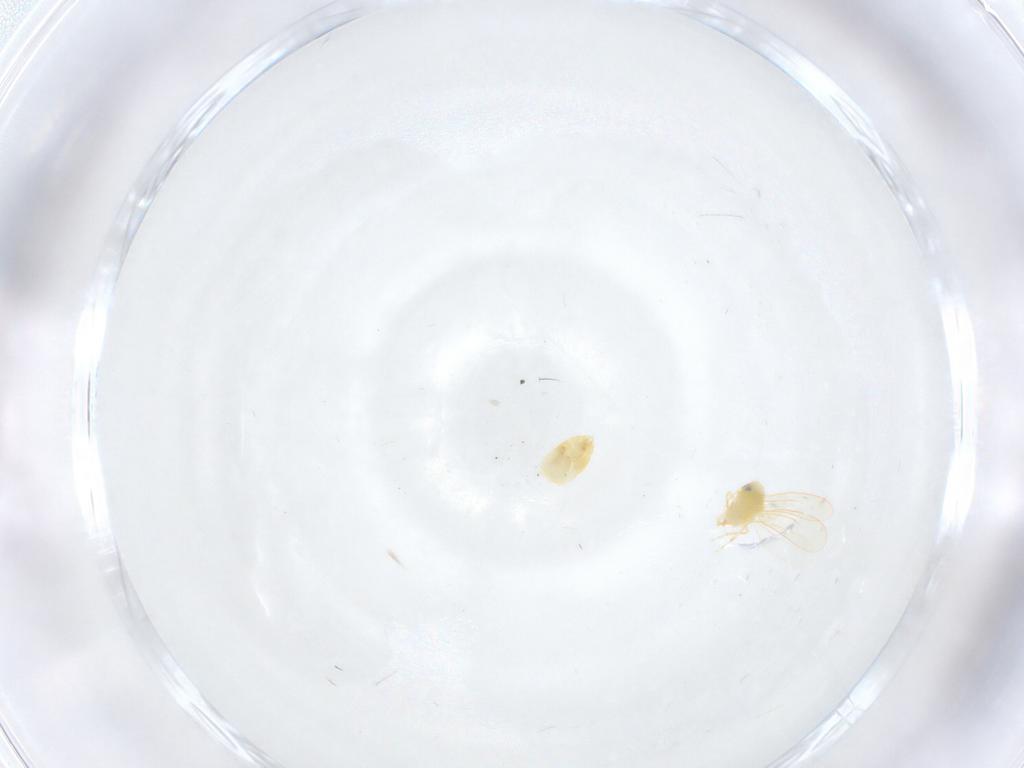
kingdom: Animalia
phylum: Arthropoda
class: Insecta
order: Hemiptera
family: Aleyrodidae
